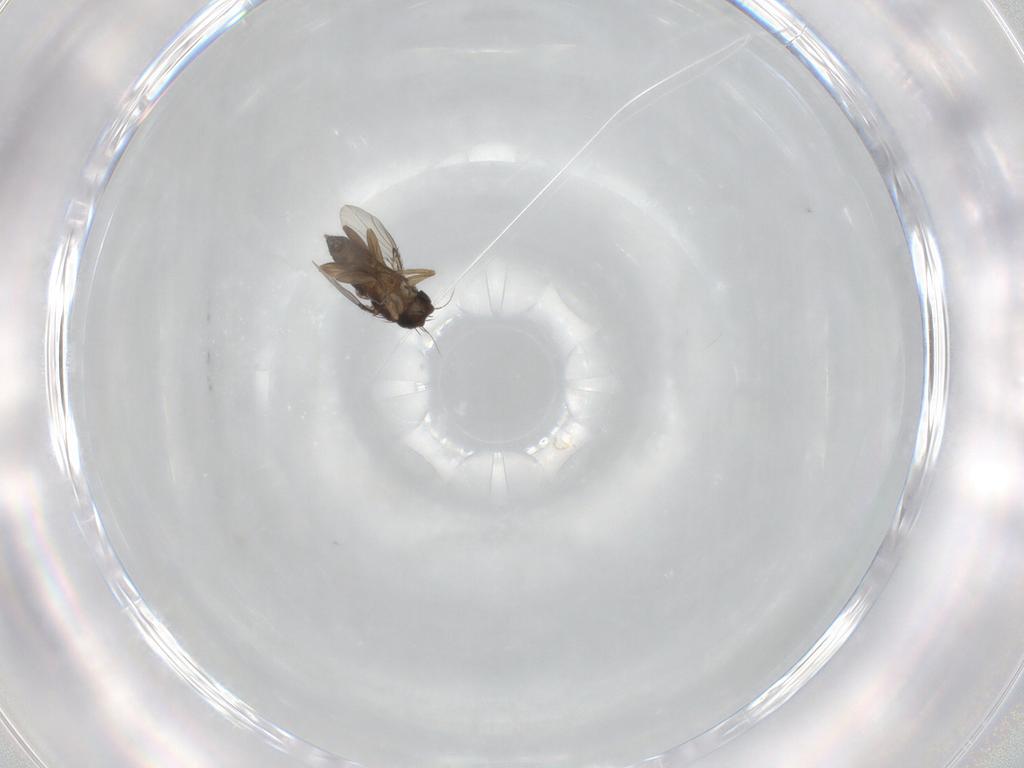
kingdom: Animalia
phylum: Arthropoda
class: Insecta
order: Diptera
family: Phoridae
